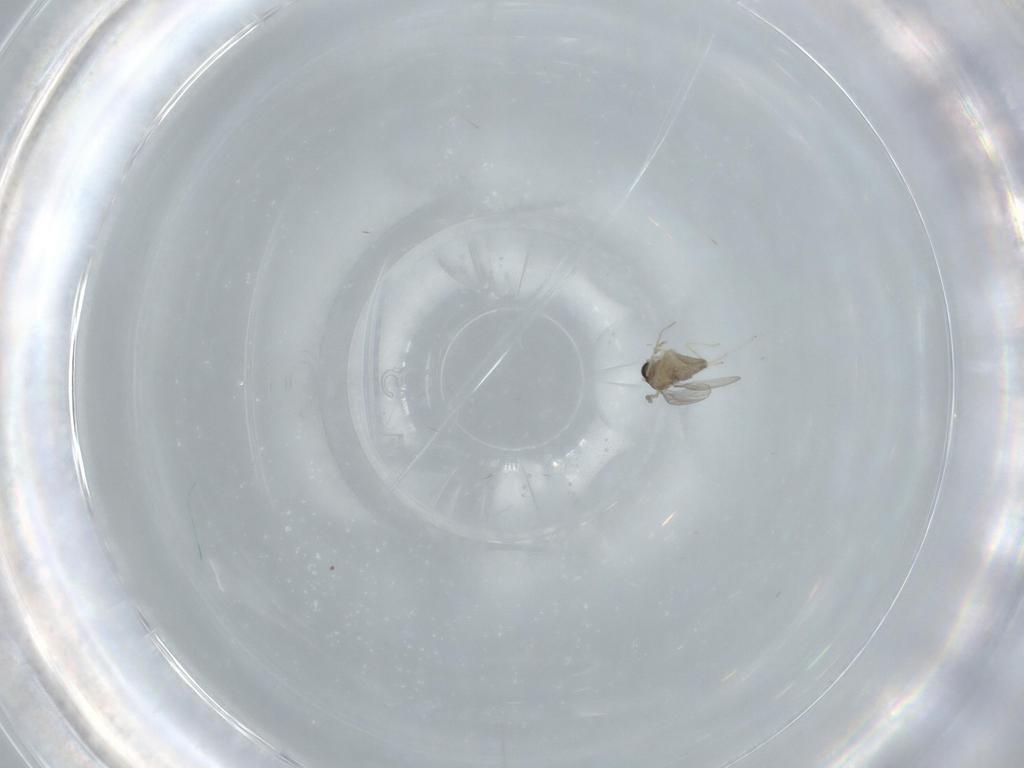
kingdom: Animalia
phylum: Arthropoda
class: Insecta
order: Diptera
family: Cecidomyiidae
